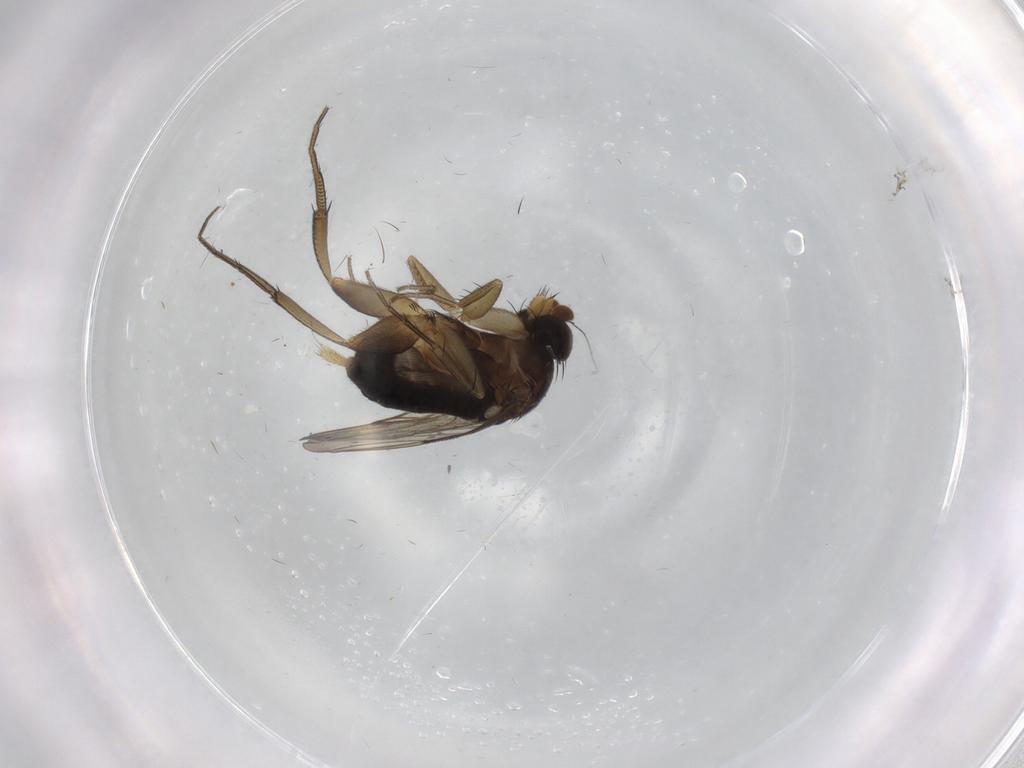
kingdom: Animalia
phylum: Arthropoda
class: Insecta
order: Diptera
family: Phoridae
